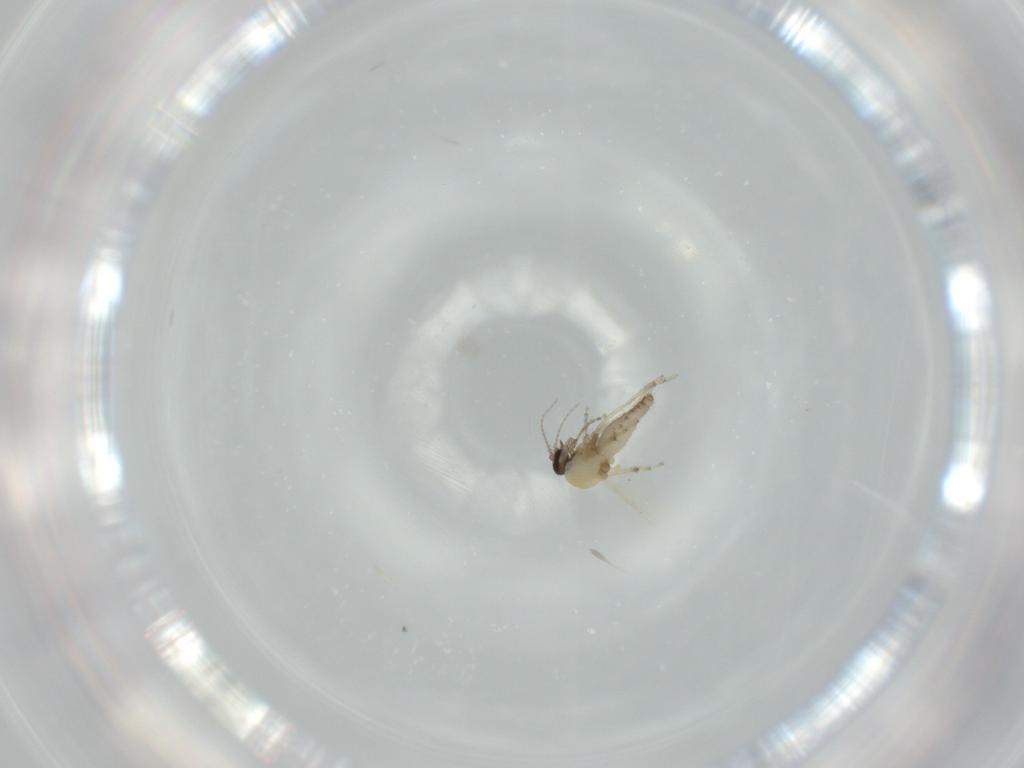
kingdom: Animalia
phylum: Arthropoda
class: Insecta
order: Diptera
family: Ceratopogonidae
